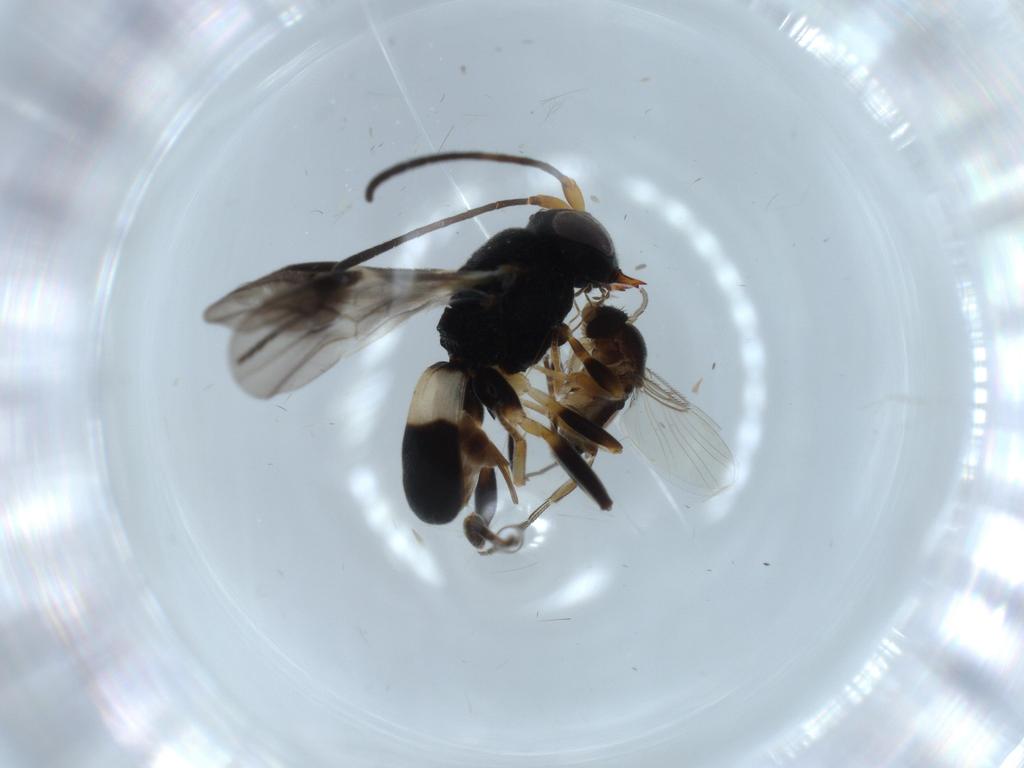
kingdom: Animalia
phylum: Arthropoda
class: Insecta
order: Diptera
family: Phoridae
